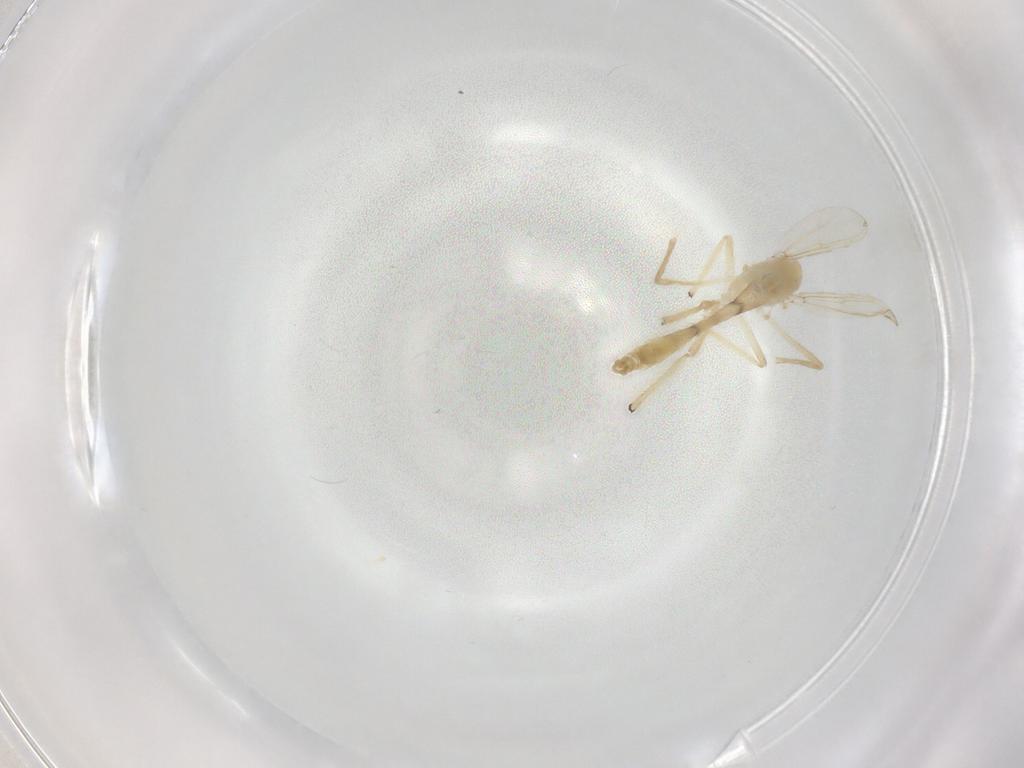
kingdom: Animalia
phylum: Arthropoda
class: Insecta
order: Diptera
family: Chironomidae
